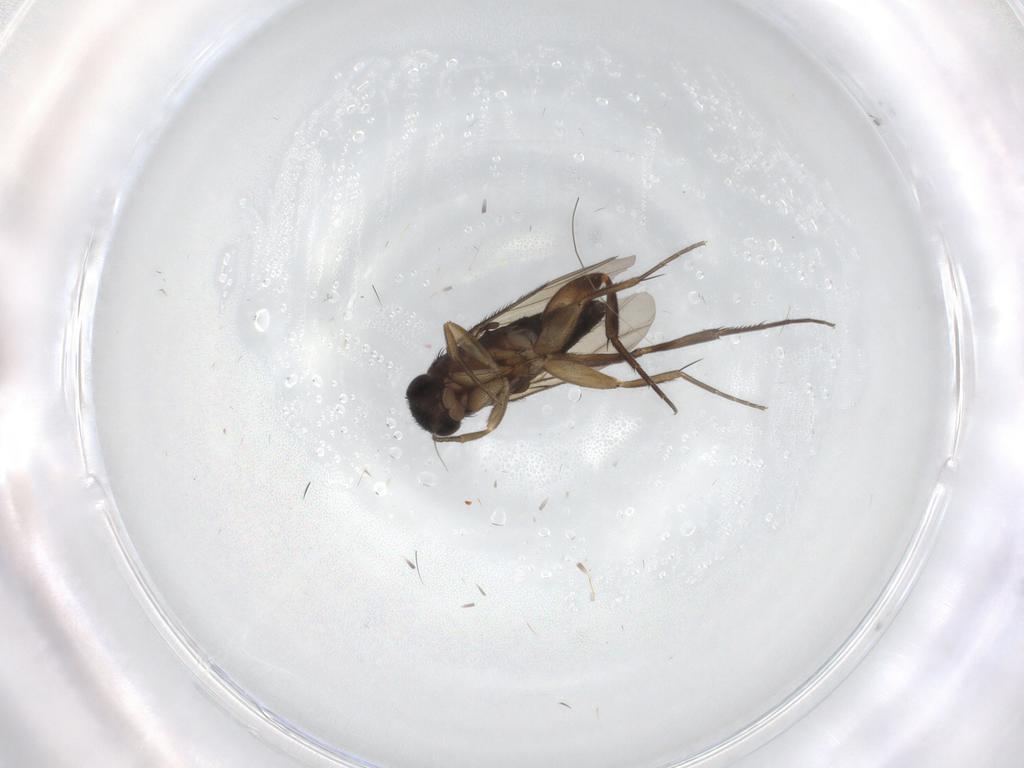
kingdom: Animalia
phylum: Arthropoda
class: Insecta
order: Diptera
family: Phoridae
